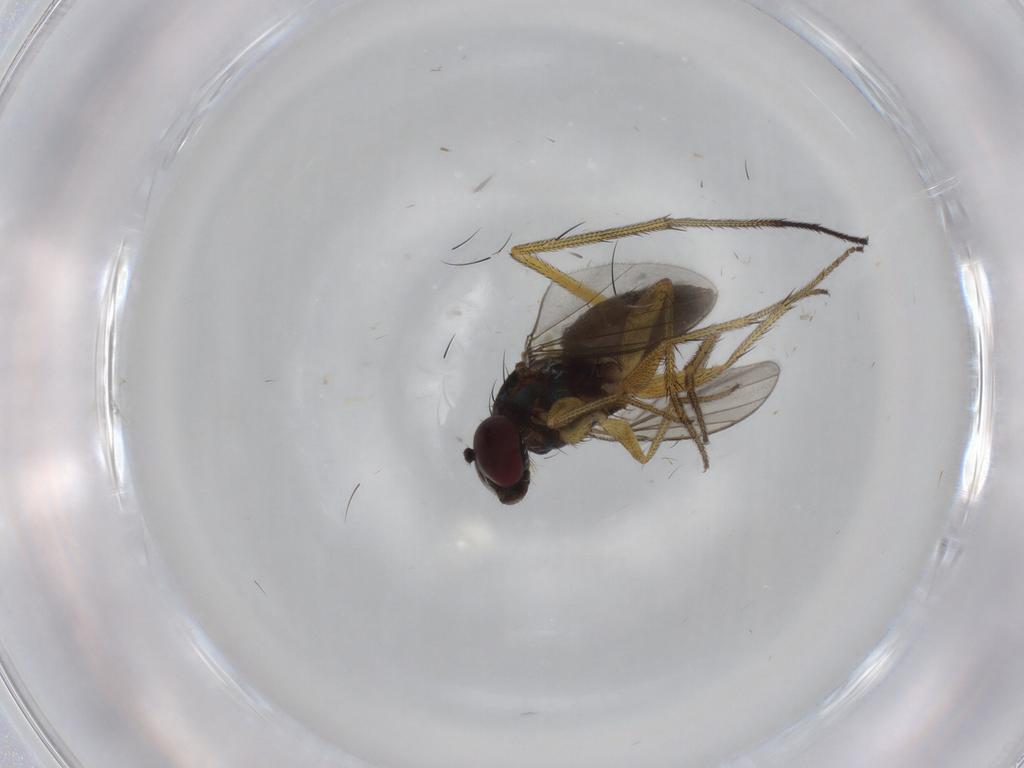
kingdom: Animalia
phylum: Arthropoda
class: Insecta
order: Diptera
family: Dolichopodidae
